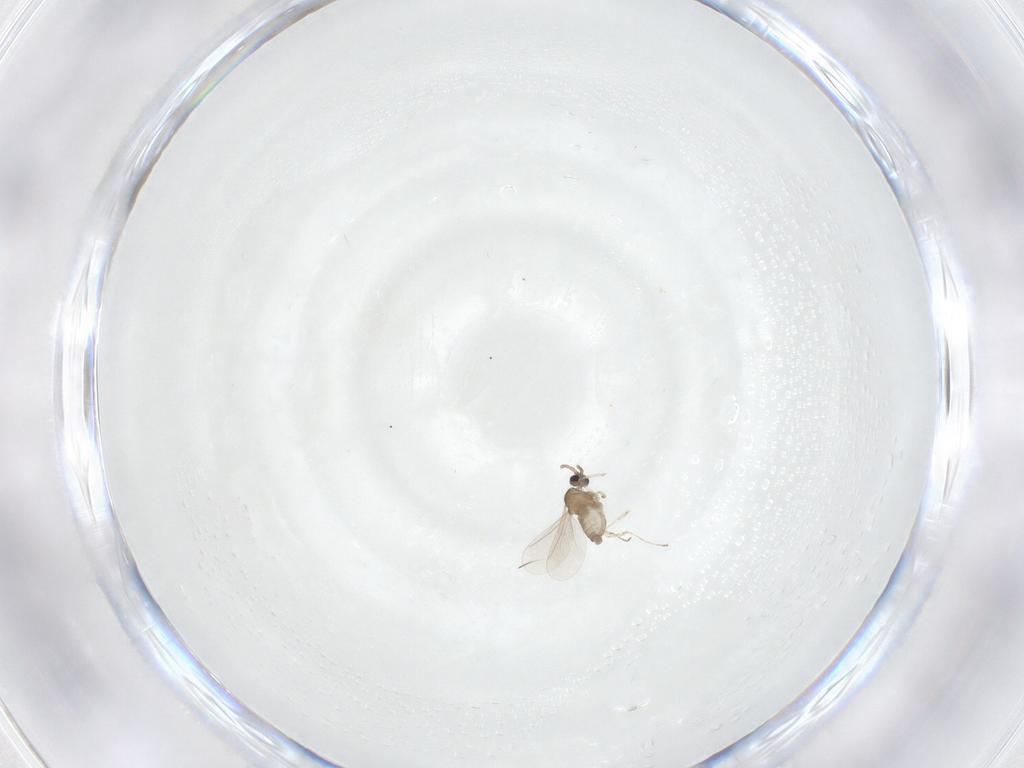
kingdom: Animalia
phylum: Arthropoda
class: Insecta
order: Diptera
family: Cecidomyiidae
